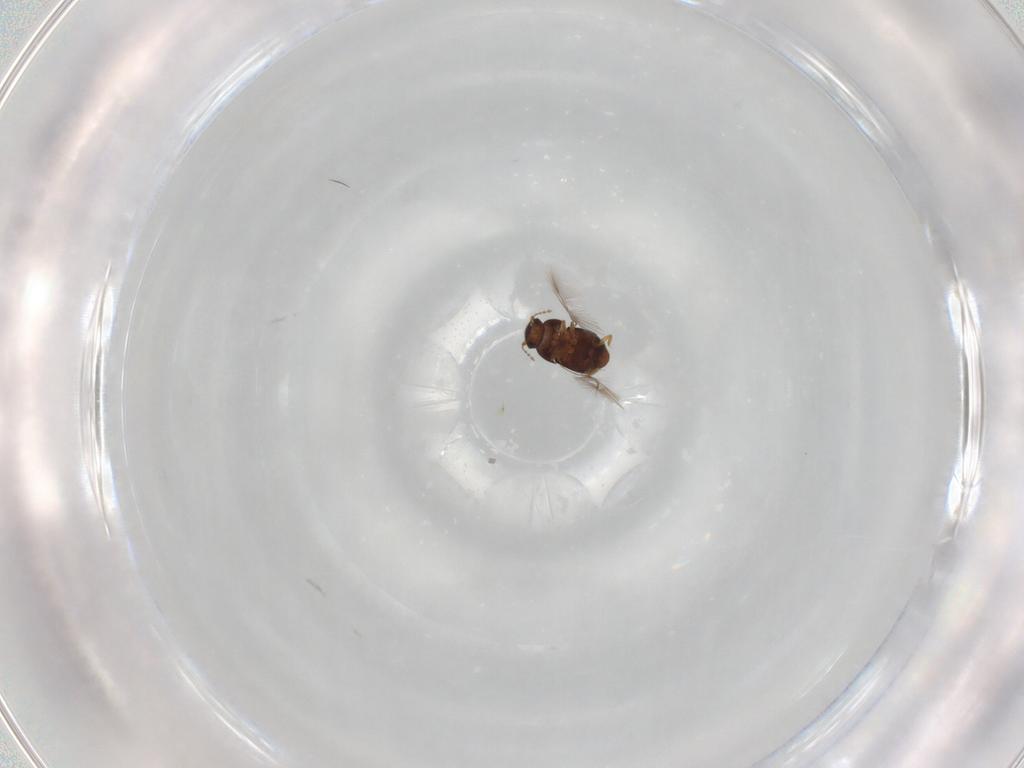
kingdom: Animalia
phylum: Arthropoda
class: Insecta
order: Coleoptera
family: Ptiliidae
